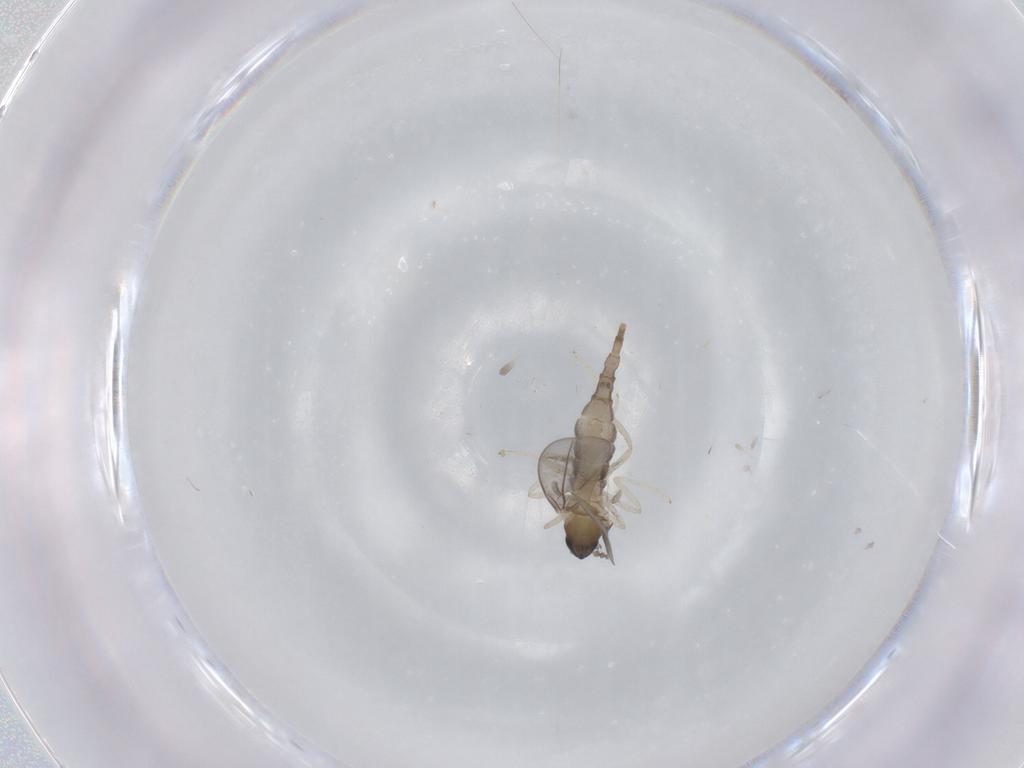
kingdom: Animalia
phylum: Arthropoda
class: Insecta
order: Diptera
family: Cecidomyiidae
